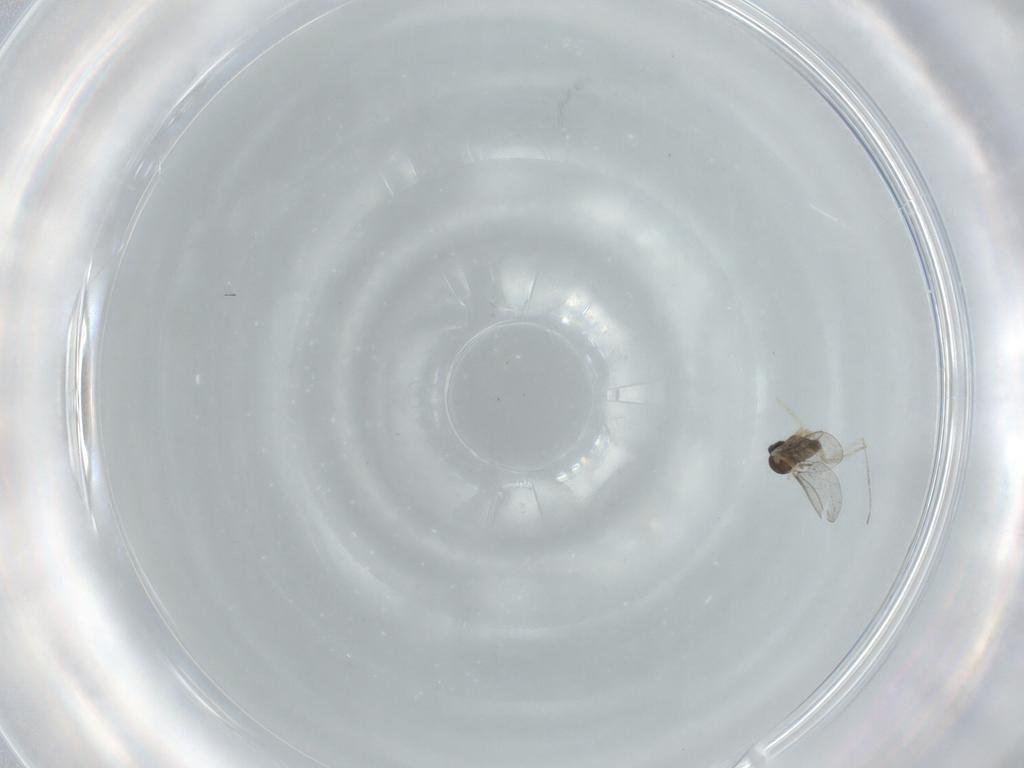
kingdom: Animalia
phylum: Arthropoda
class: Insecta
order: Diptera
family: Cecidomyiidae
